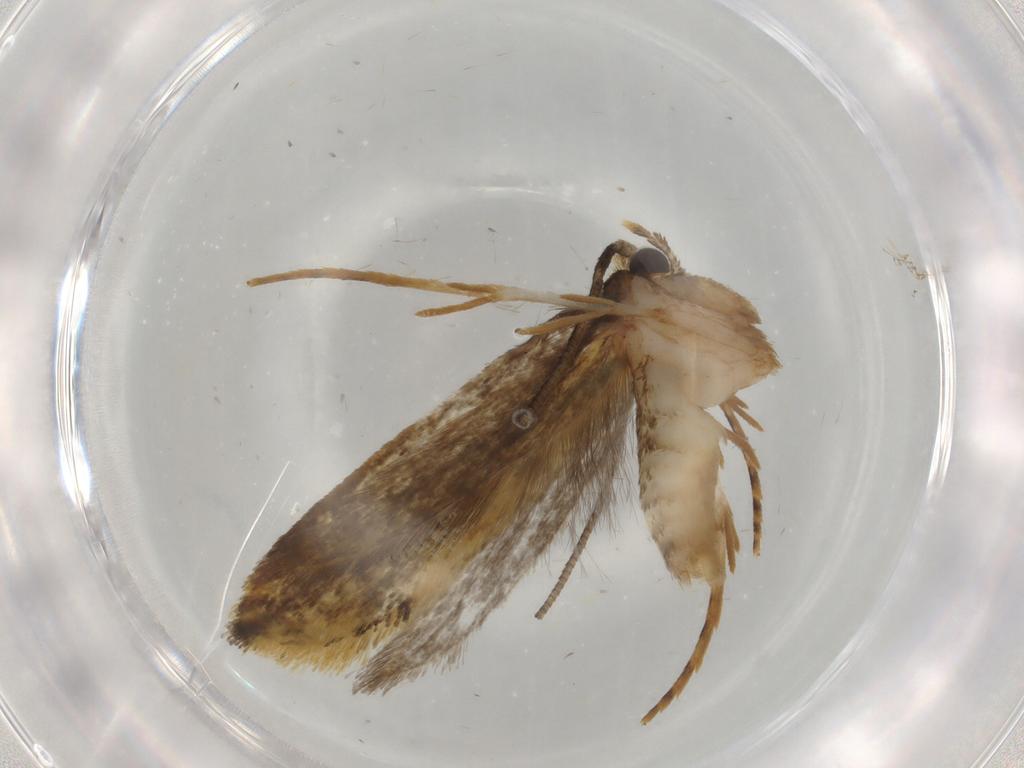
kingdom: Animalia
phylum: Arthropoda
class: Insecta
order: Lepidoptera
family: Tineidae
